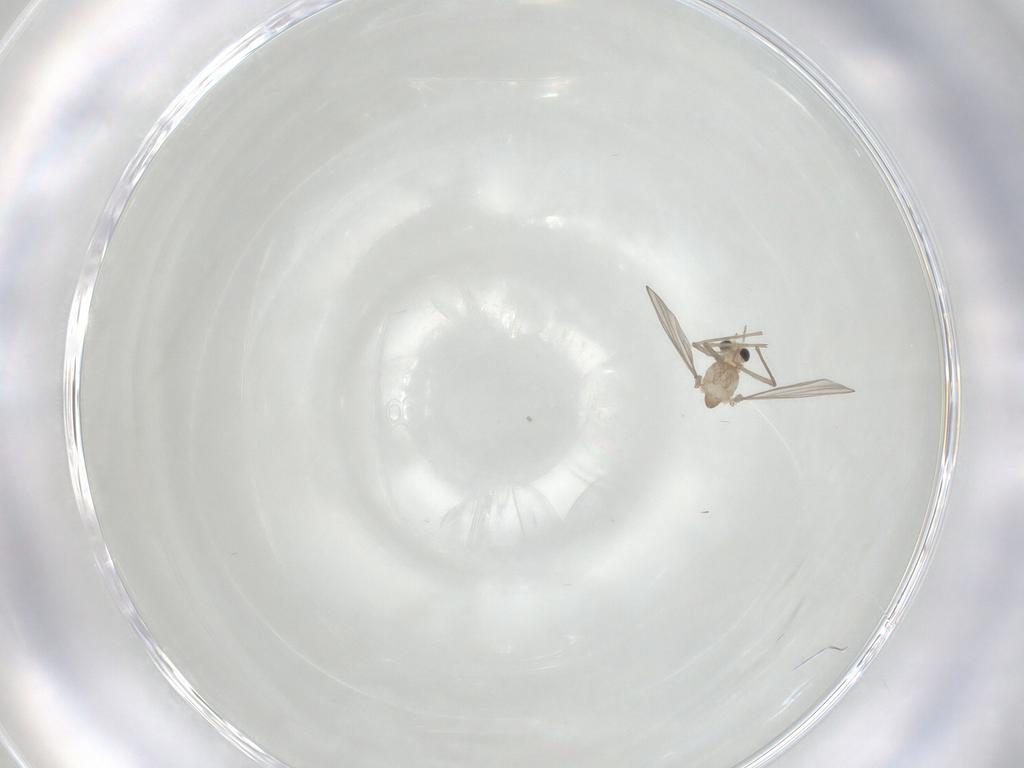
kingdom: Animalia
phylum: Arthropoda
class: Insecta
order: Diptera
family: Chironomidae
